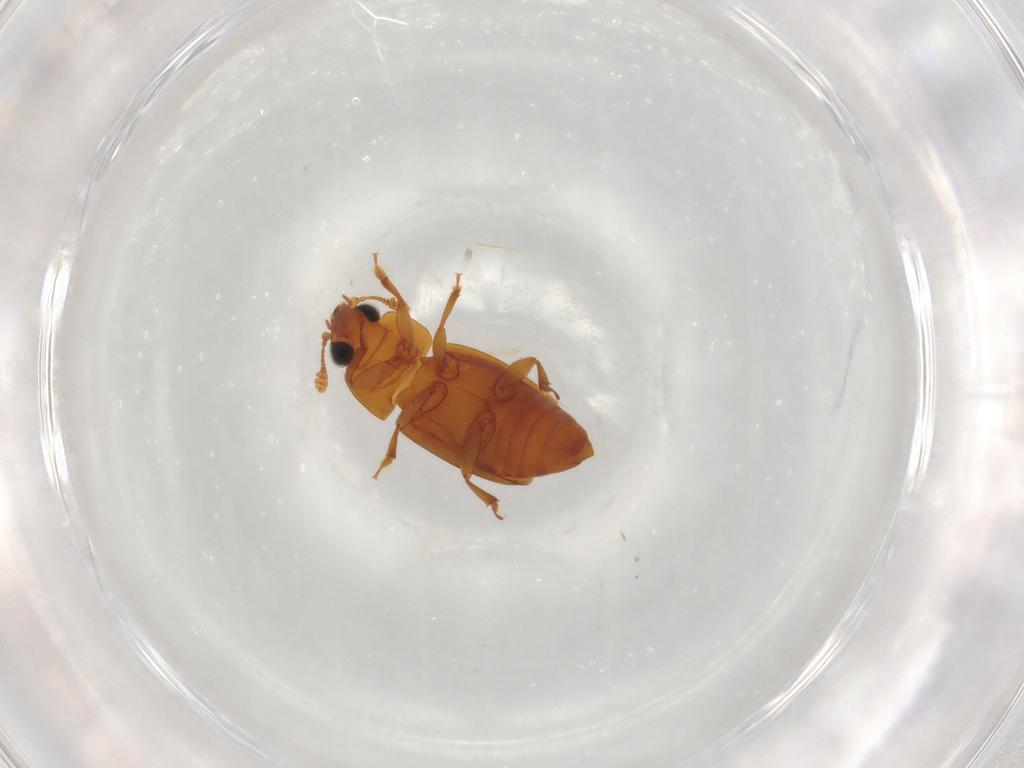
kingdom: Animalia
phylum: Arthropoda
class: Insecta
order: Coleoptera
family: Nitidulidae
